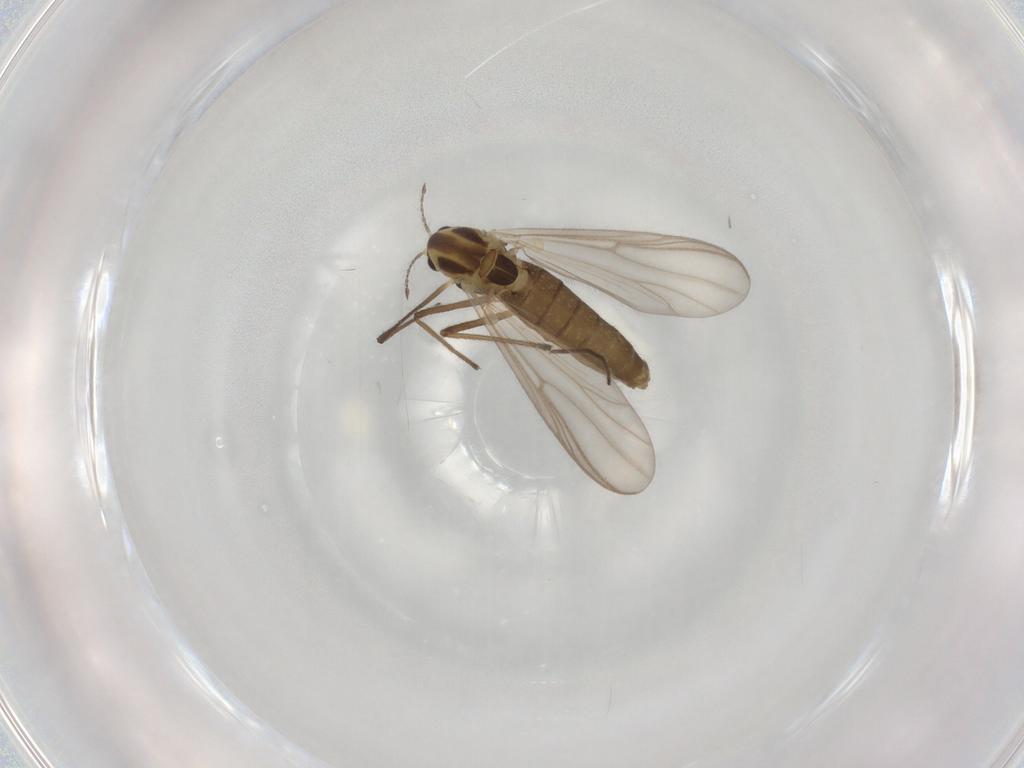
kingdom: Animalia
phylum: Arthropoda
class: Insecta
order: Diptera
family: Chironomidae
